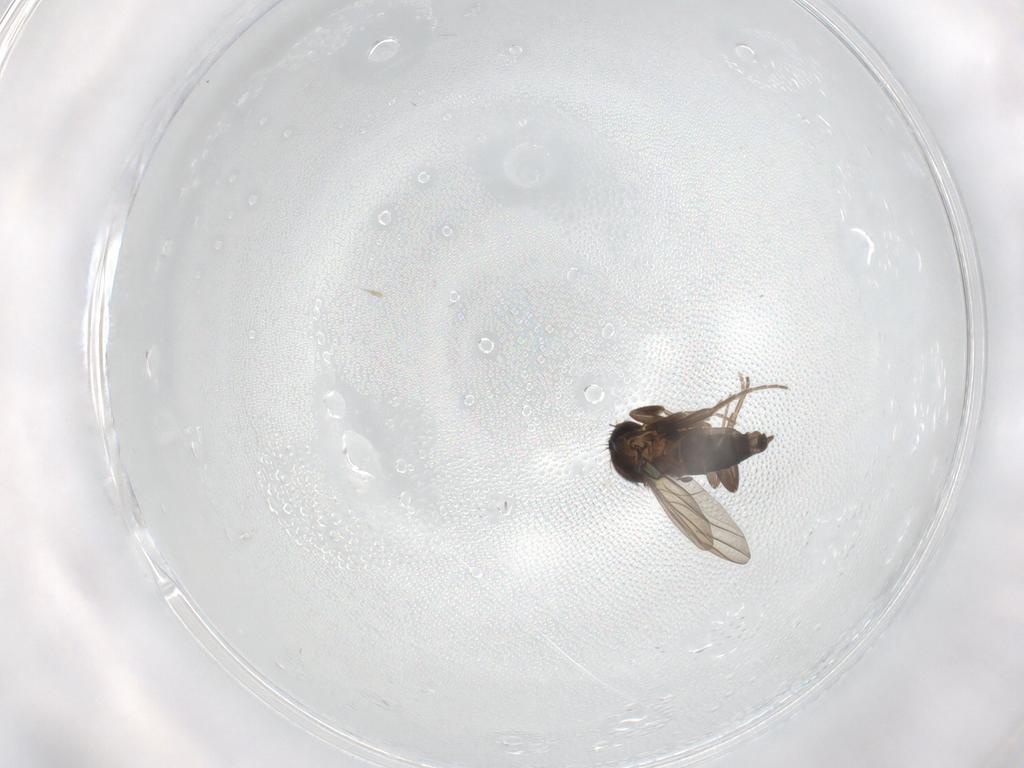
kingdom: Animalia
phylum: Arthropoda
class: Insecta
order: Diptera
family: Phoridae
